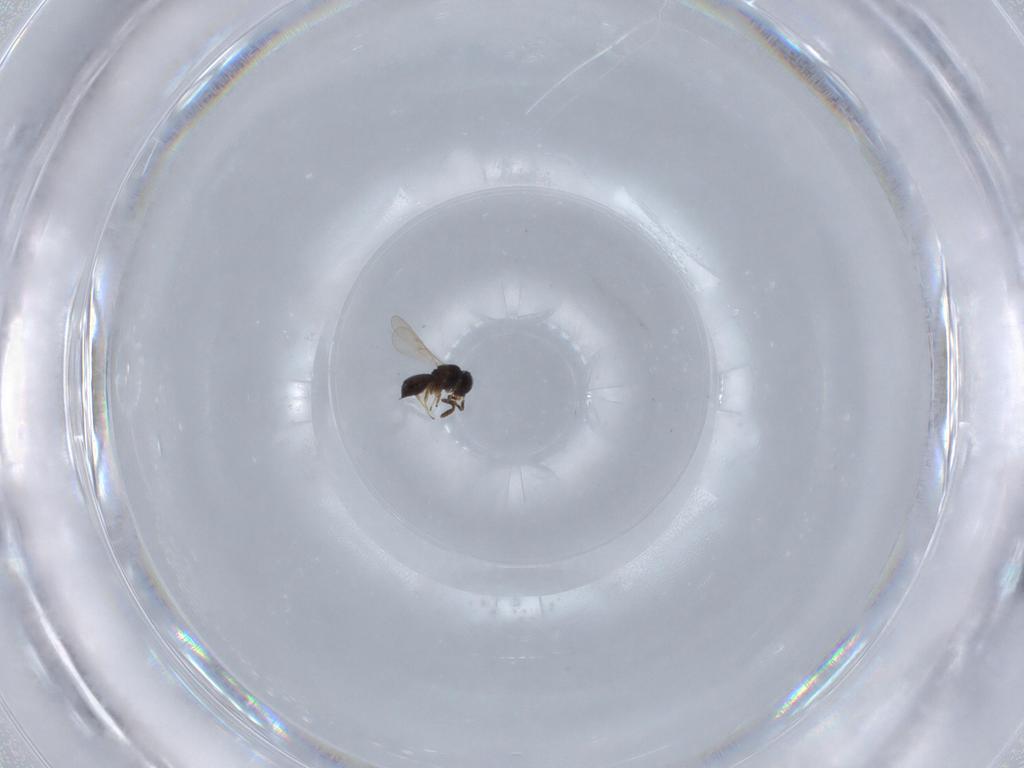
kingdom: Animalia
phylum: Arthropoda
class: Insecta
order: Hymenoptera
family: Scelionidae
